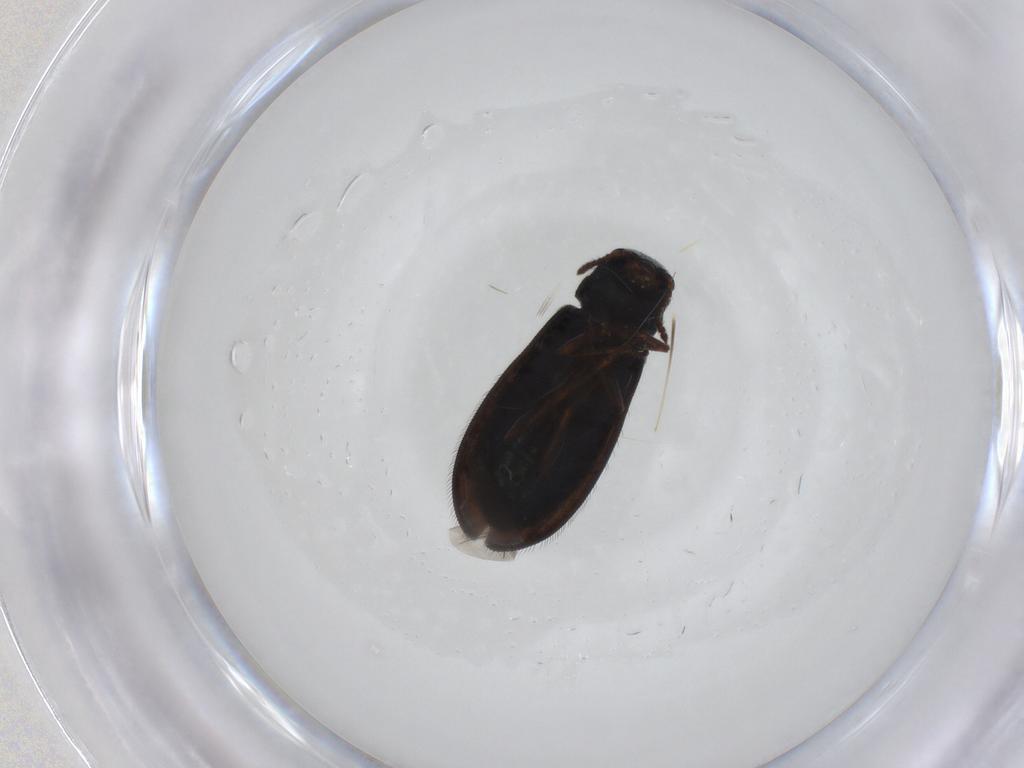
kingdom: Animalia
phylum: Arthropoda
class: Insecta
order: Coleoptera
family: Melyridae
